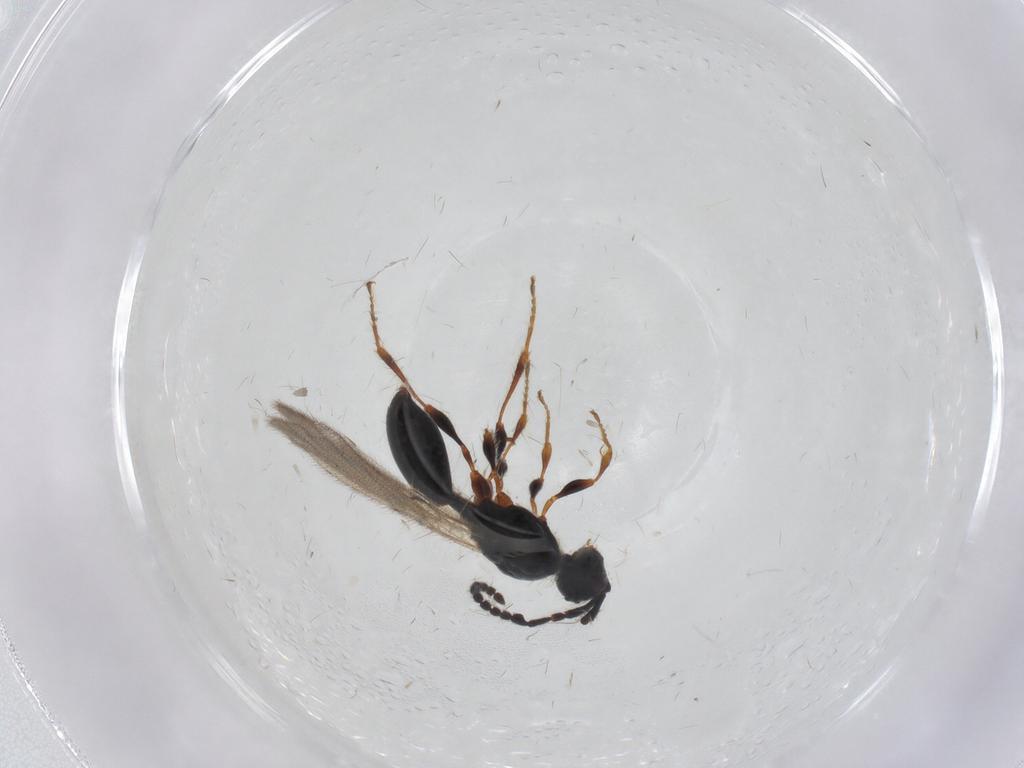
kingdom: Animalia
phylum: Arthropoda
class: Insecta
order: Hymenoptera
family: Diapriidae
